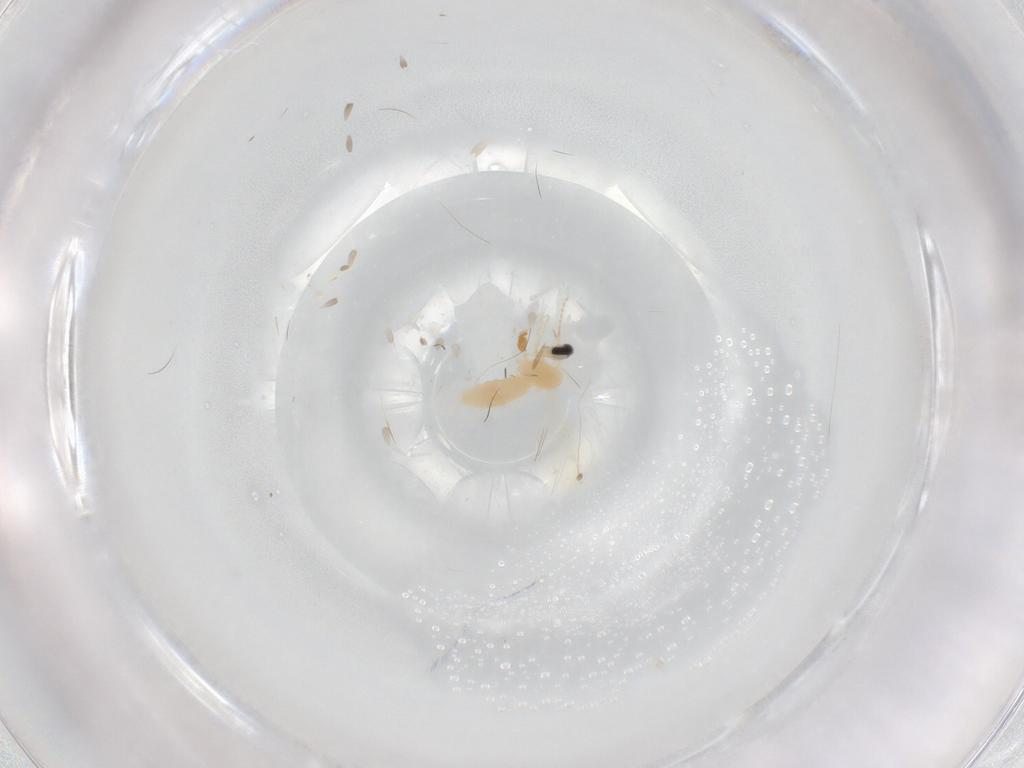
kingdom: Animalia
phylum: Arthropoda
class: Insecta
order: Diptera
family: Cecidomyiidae
